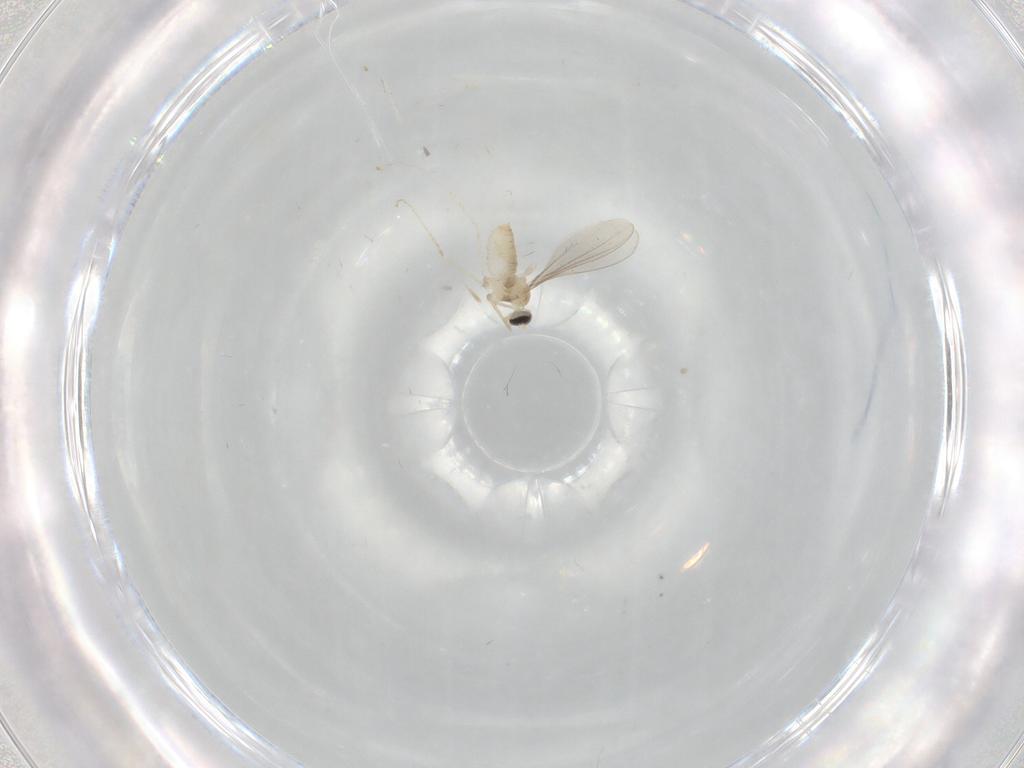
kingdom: Animalia
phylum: Arthropoda
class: Insecta
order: Diptera
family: Cecidomyiidae
